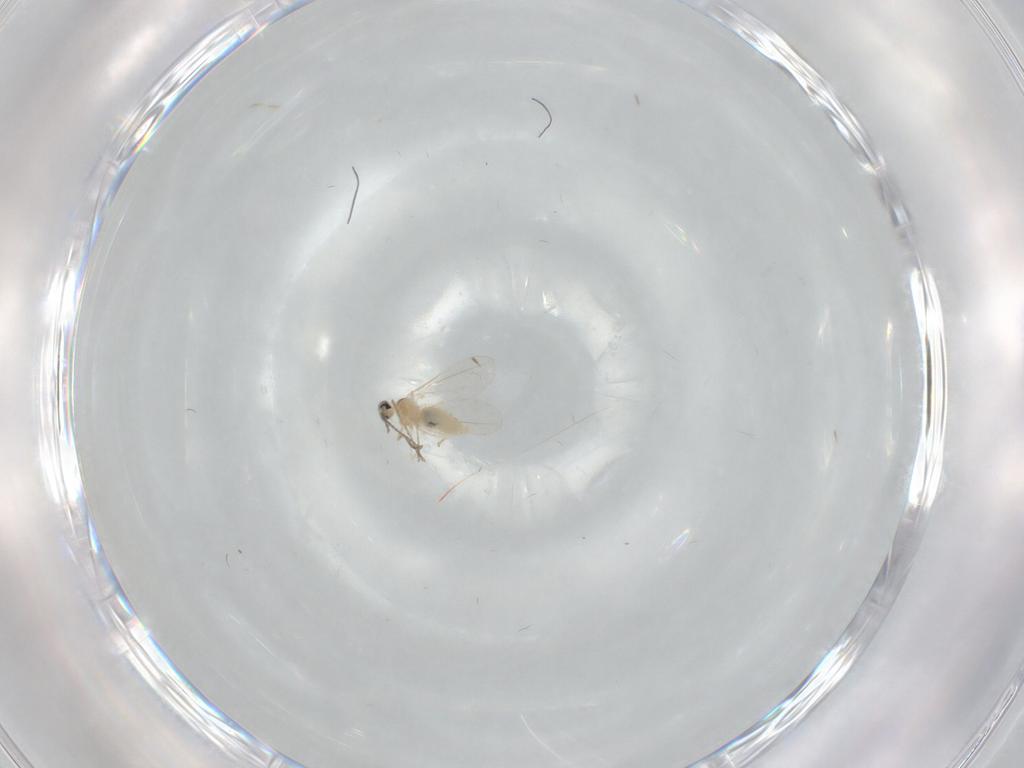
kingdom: Animalia
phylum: Arthropoda
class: Insecta
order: Diptera
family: Cecidomyiidae
